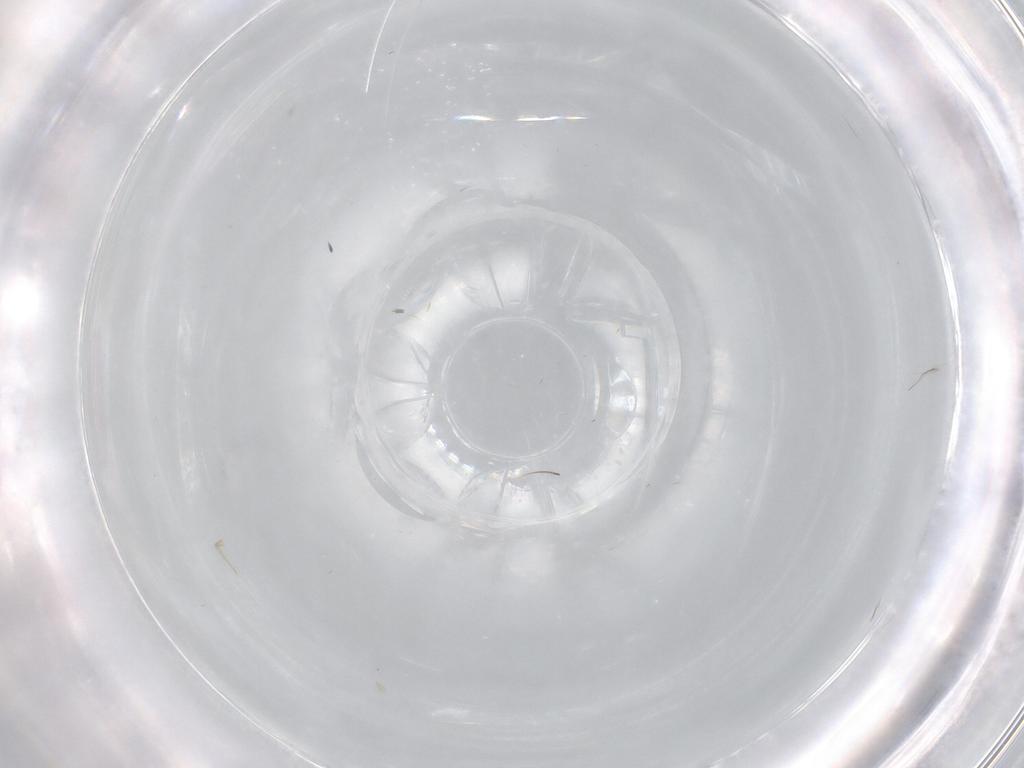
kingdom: Animalia
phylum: Arthropoda
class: Insecta
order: Diptera
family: Milichiidae
